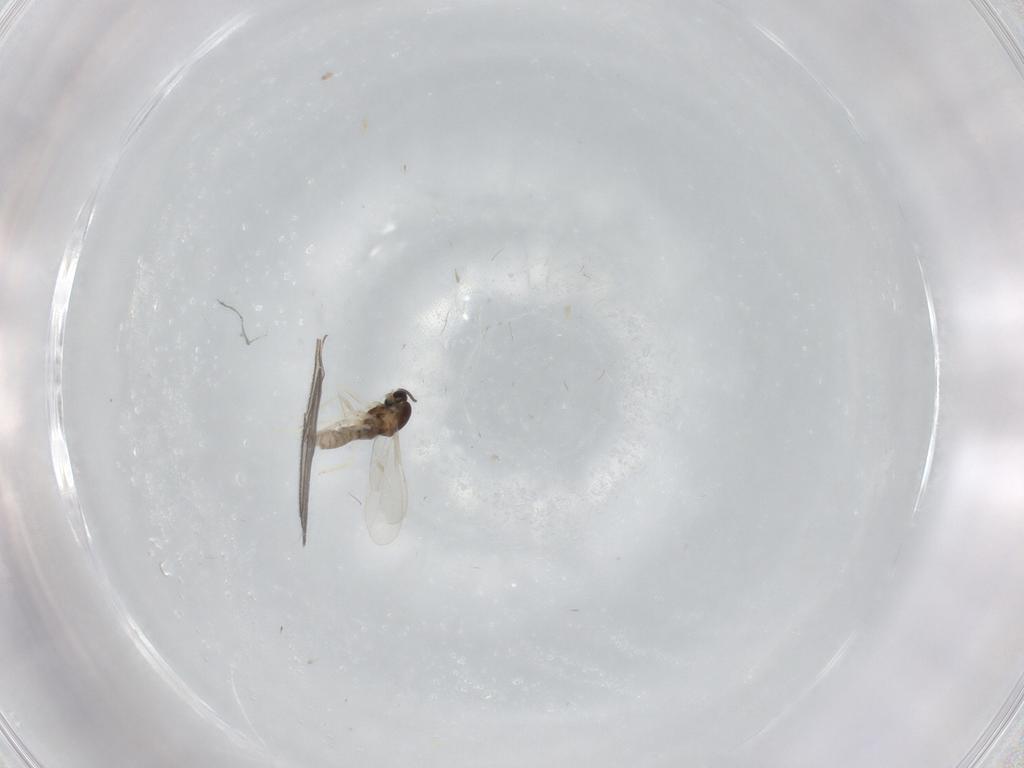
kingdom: Animalia
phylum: Arthropoda
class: Insecta
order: Diptera
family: Cecidomyiidae
